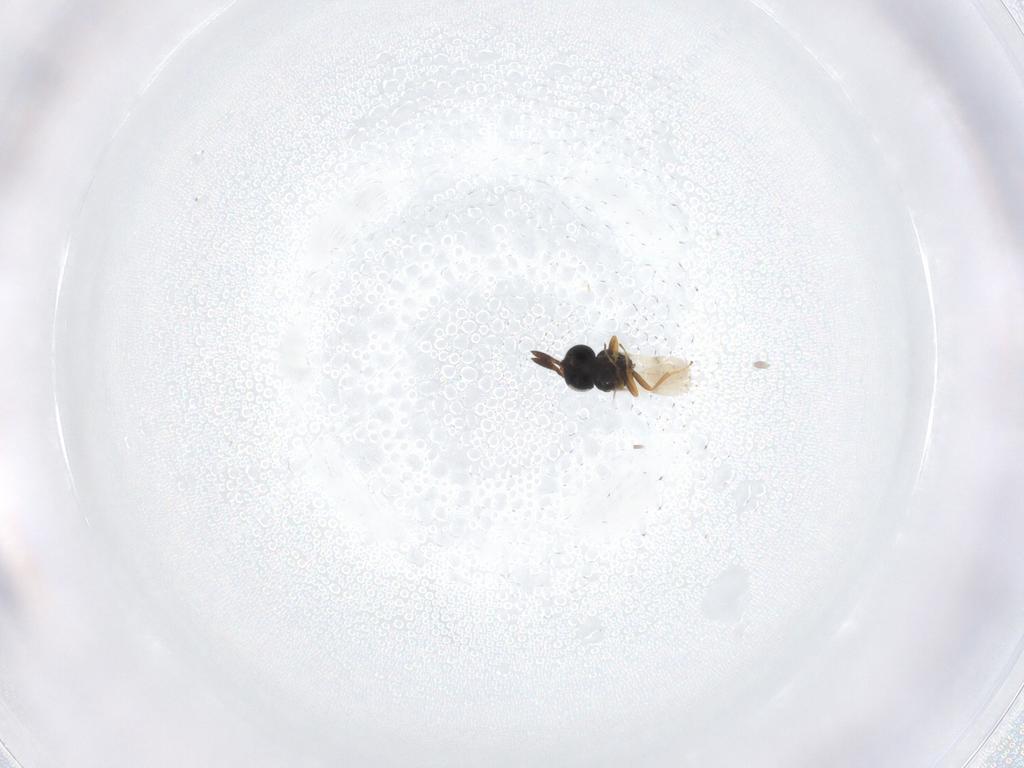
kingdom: Animalia
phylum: Arthropoda
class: Insecta
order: Hymenoptera
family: Scelionidae
